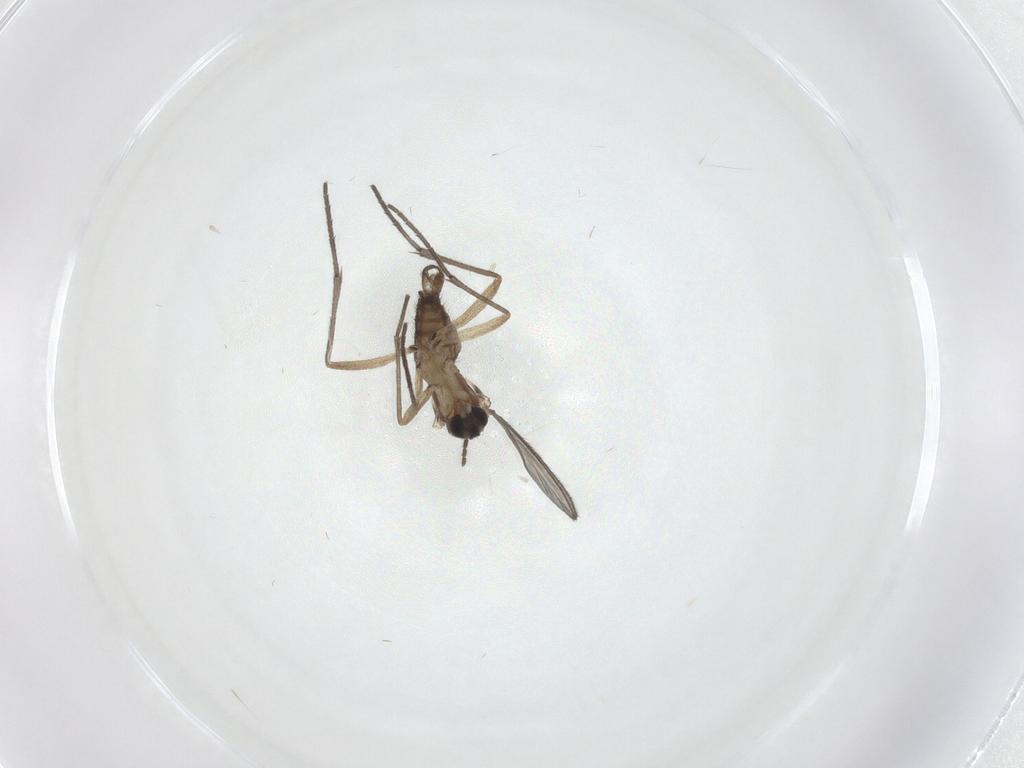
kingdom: Animalia
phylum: Arthropoda
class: Insecta
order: Diptera
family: Sciaridae
